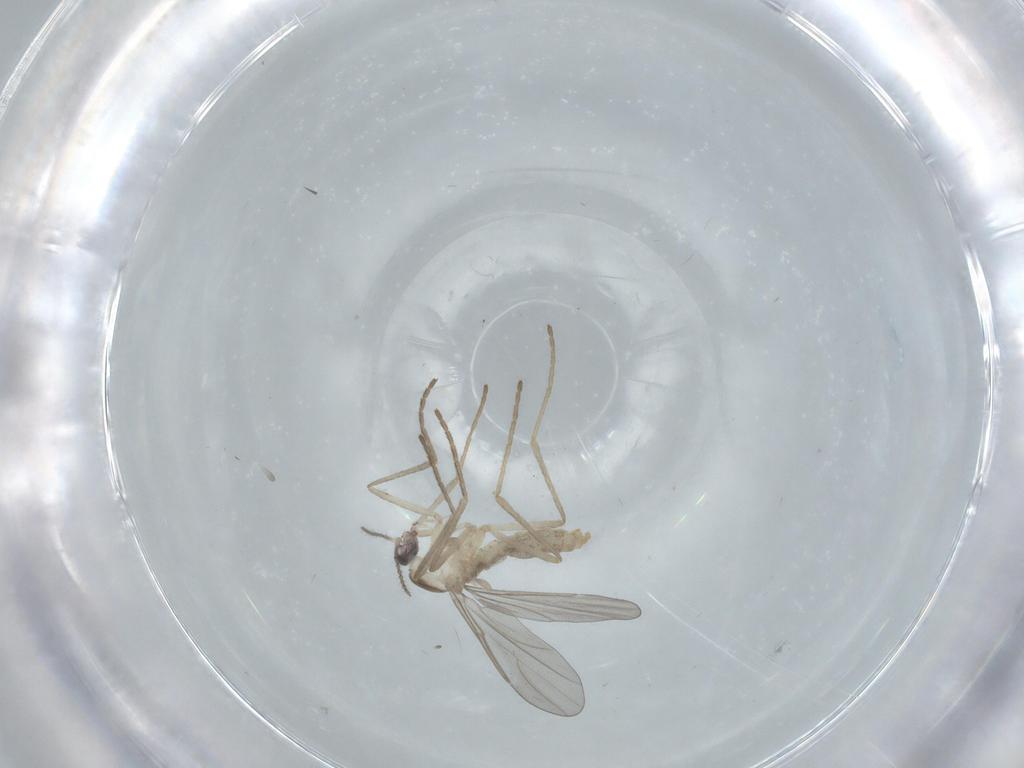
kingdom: Animalia
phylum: Arthropoda
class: Insecta
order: Diptera
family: Cecidomyiidae
